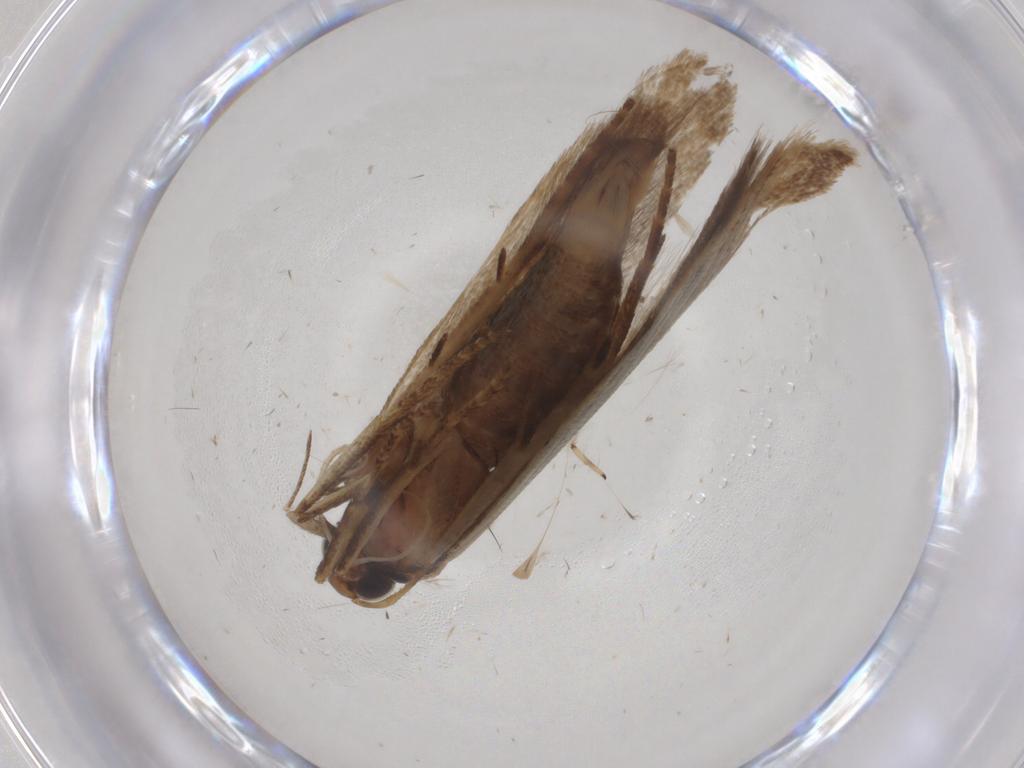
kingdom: Animalia
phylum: Arthropoda
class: Insecta
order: Lepidoptera
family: Gelechiidae
